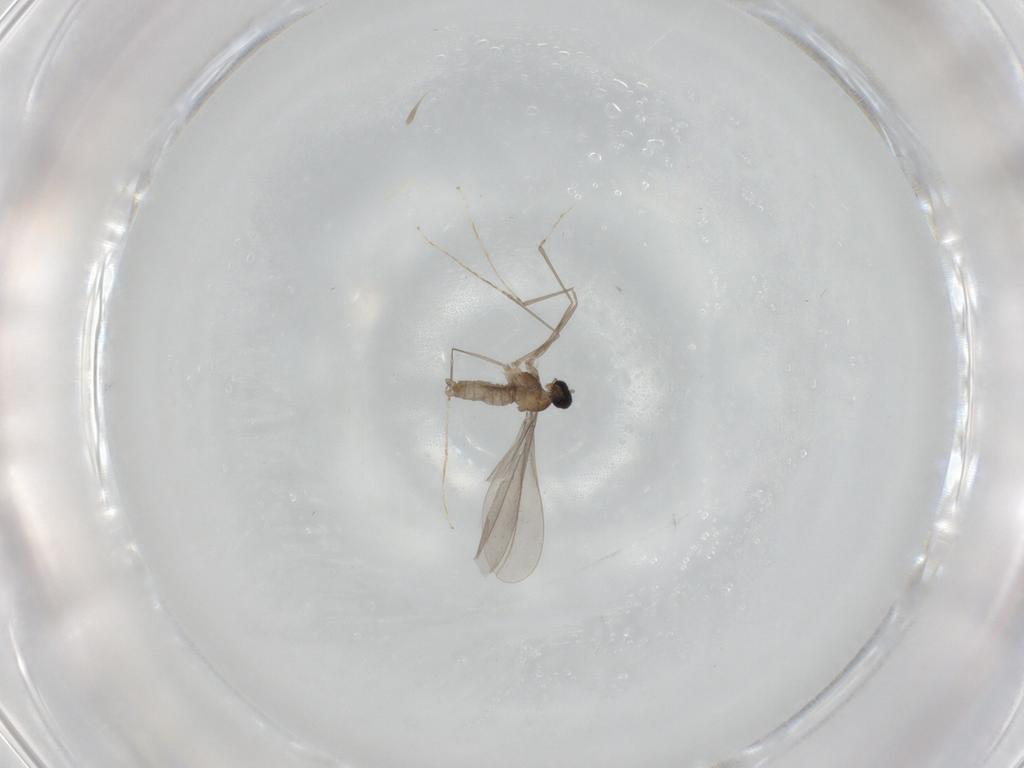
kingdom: Animalia
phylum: Arthropoda
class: Insecta
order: Diptera
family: Cecidomyiidae
